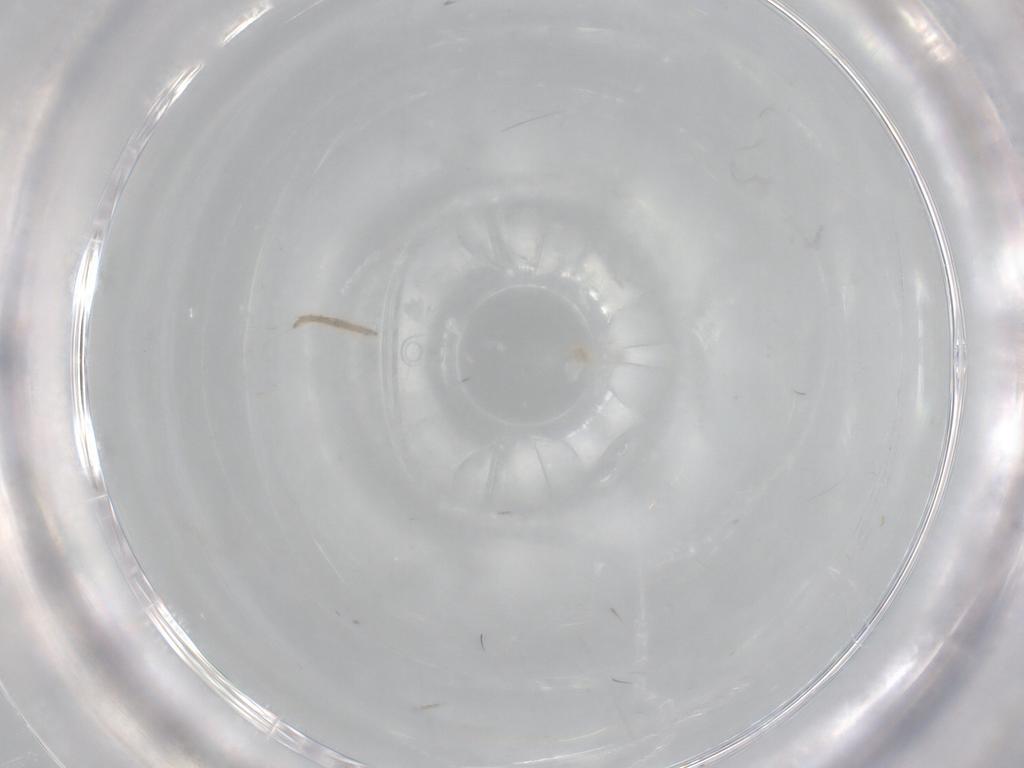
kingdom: Animalia
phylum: Arthropoda
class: Insecta
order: Diptera
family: Chironomidae
